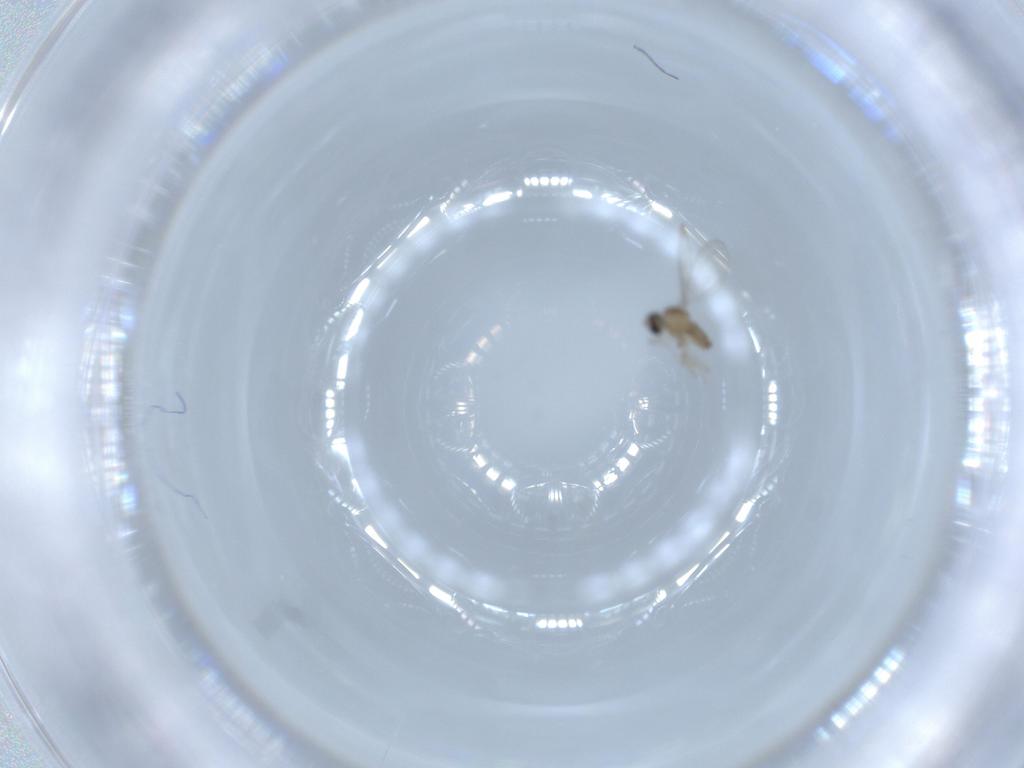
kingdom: Animalia
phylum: Arthropoda
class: Insecta
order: Diptera
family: Cecidomyiidae
